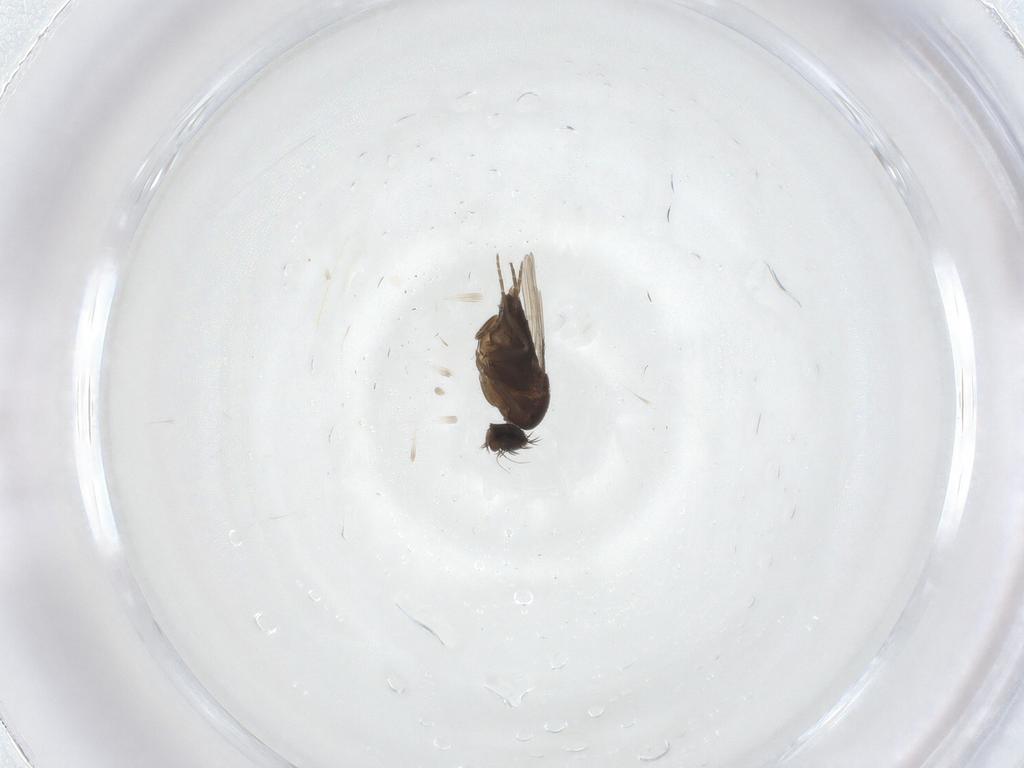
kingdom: Animalia
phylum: Arthropoda
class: Insecta
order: Diptera
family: Phoridae
